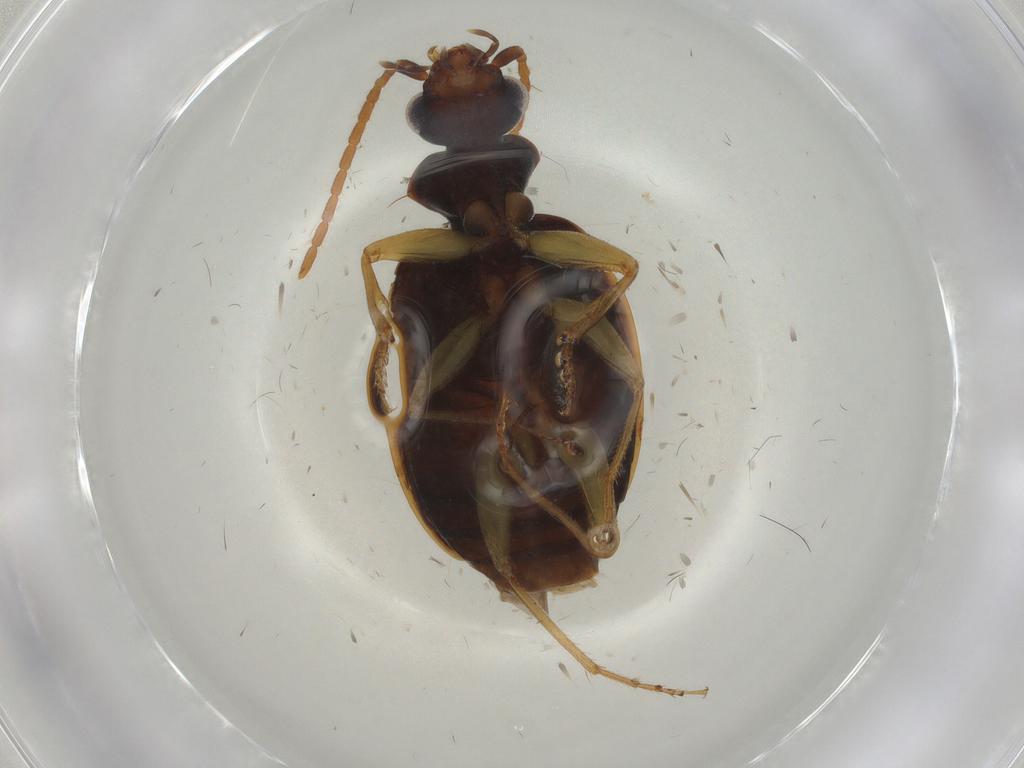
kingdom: Animalia
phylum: Arthropoda
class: Insecta
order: Coleoptera
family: Carabidae
